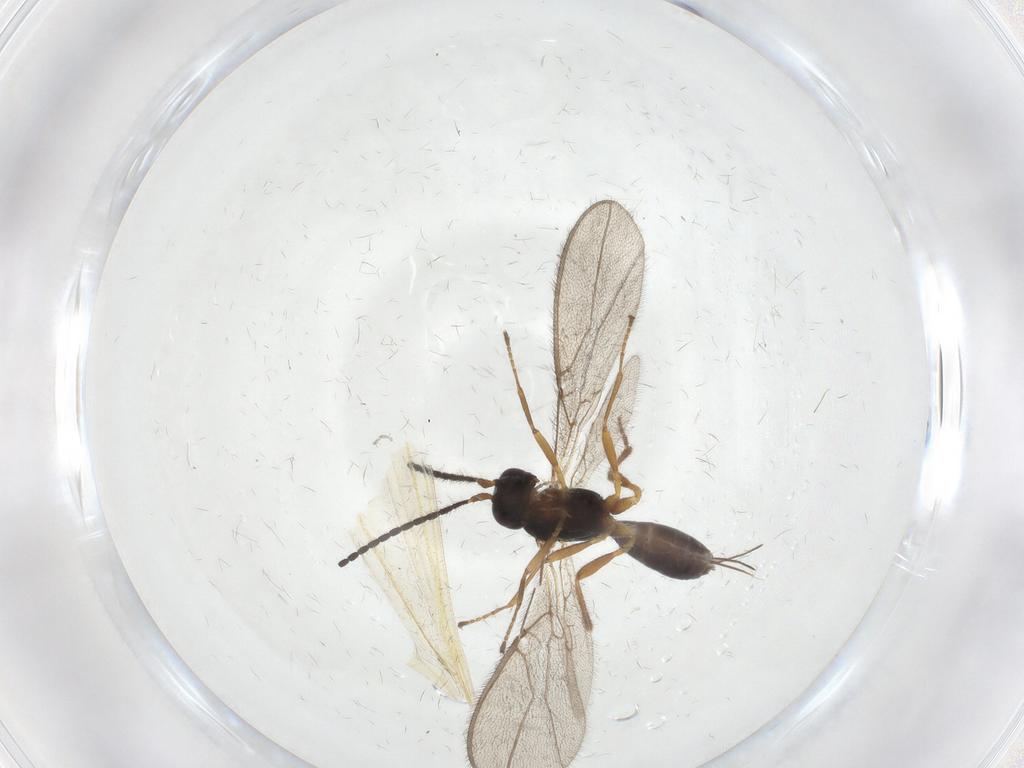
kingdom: Animalia
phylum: Arthropoda
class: Insecta
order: Hymenoptera
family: Braconidae
